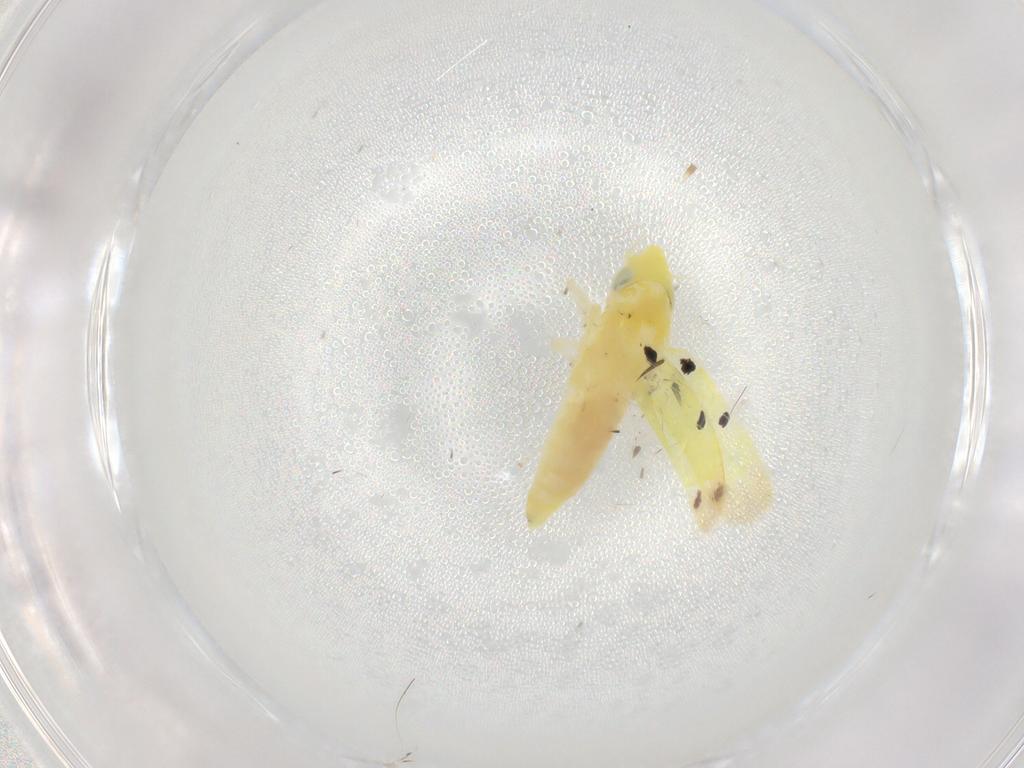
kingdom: Animalia
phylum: Arthropoda
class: Insecta
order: Hemiptera
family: Cicadellidae
